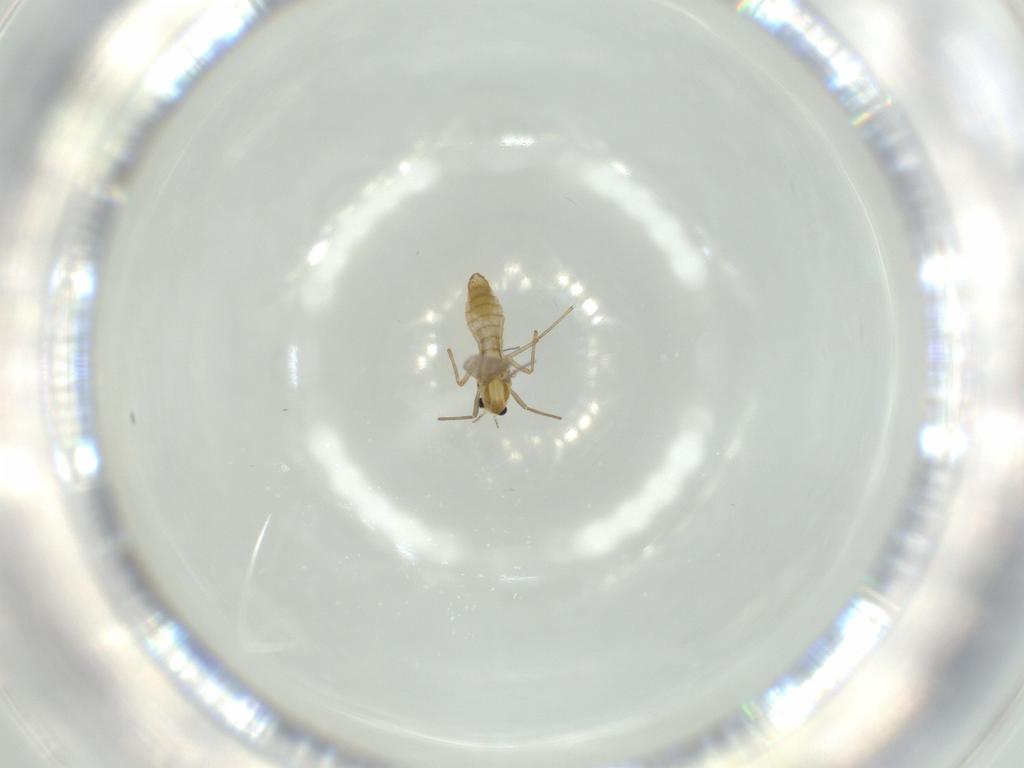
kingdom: Animalia
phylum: Arthropoda
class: Insecta
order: Diptera
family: Chironomidae
